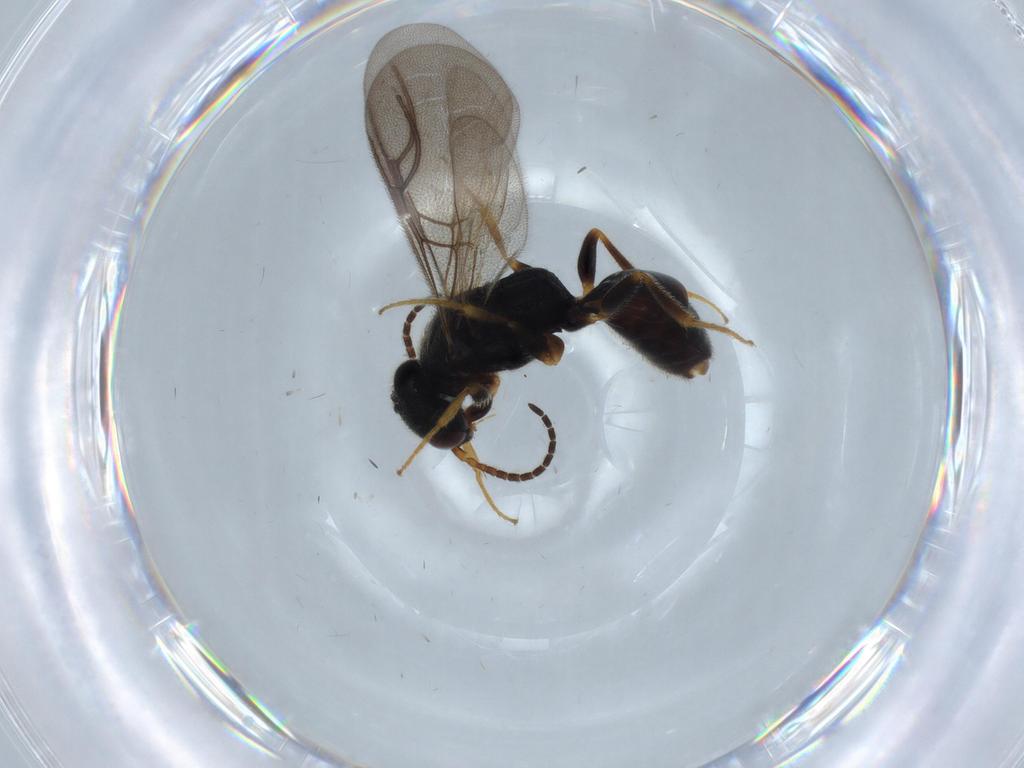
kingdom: Animalia
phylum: Arthropoda
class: Insecta
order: Hymenoptera
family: Bethylidae
